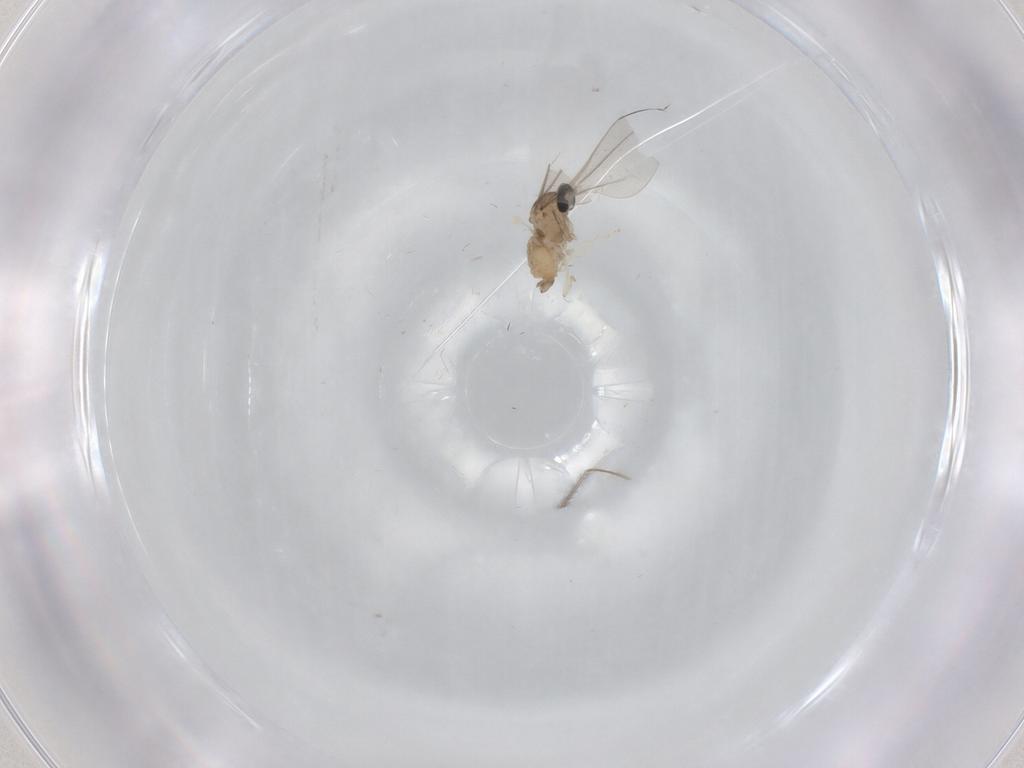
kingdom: Animalia
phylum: Arthropoda
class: Insecta
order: Diptera
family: Cecidomyiidae
